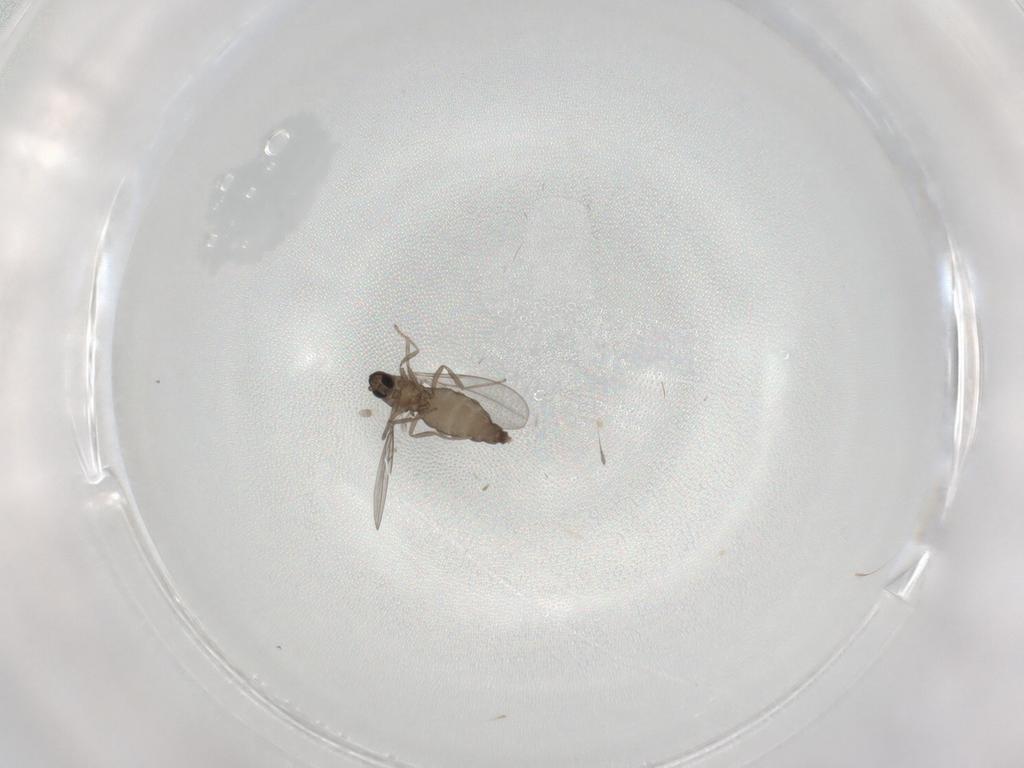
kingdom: Animalia
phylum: Arthropoda
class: Insecta
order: Diptera
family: Cecidomyiidae
